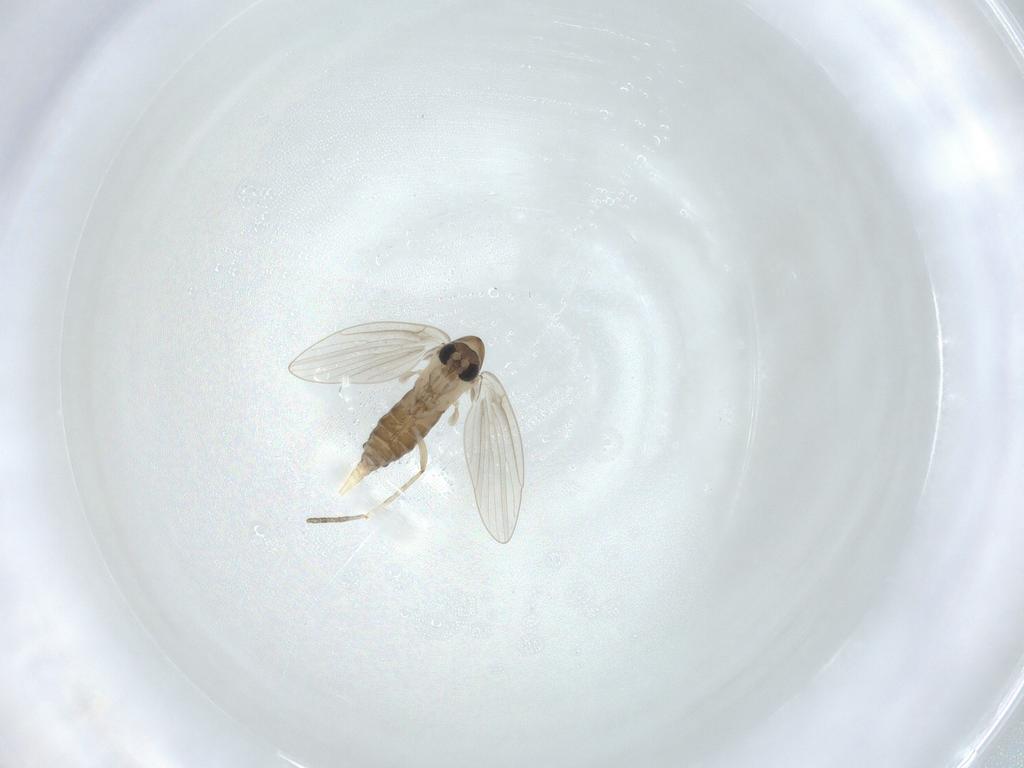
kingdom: Animalia
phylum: Arthropoda
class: Insecta
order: Diptera
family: Psychodidae
